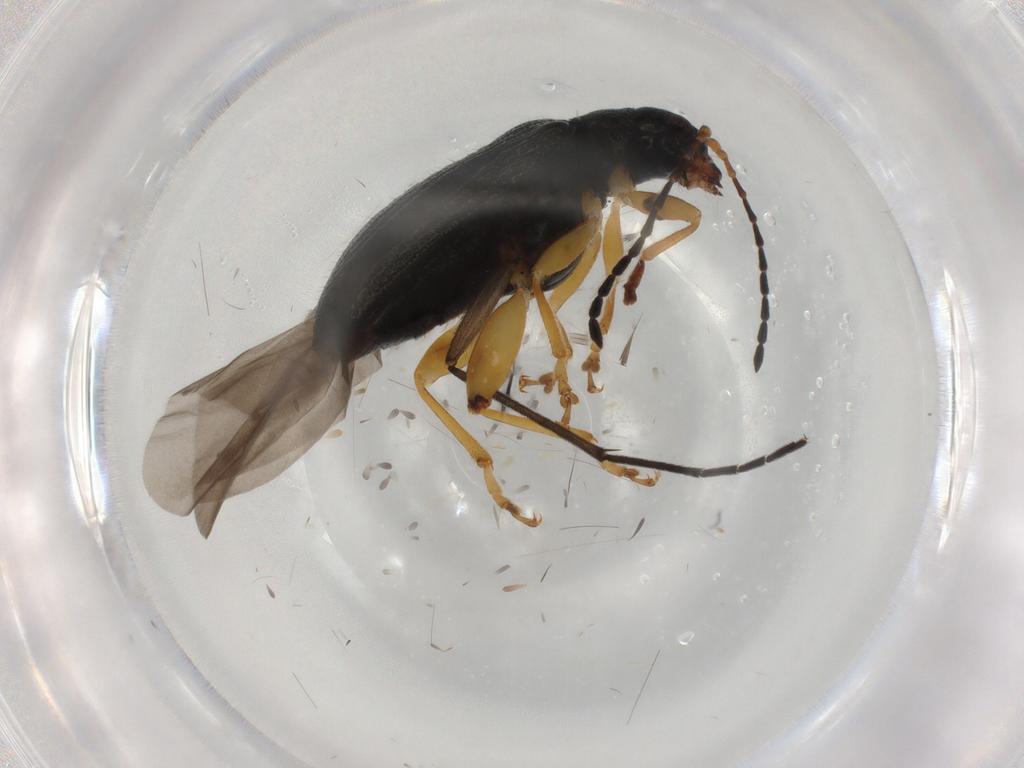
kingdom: Animalia
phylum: Arthropoda
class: Insecta
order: Coleoptera
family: Chrysomelidae
